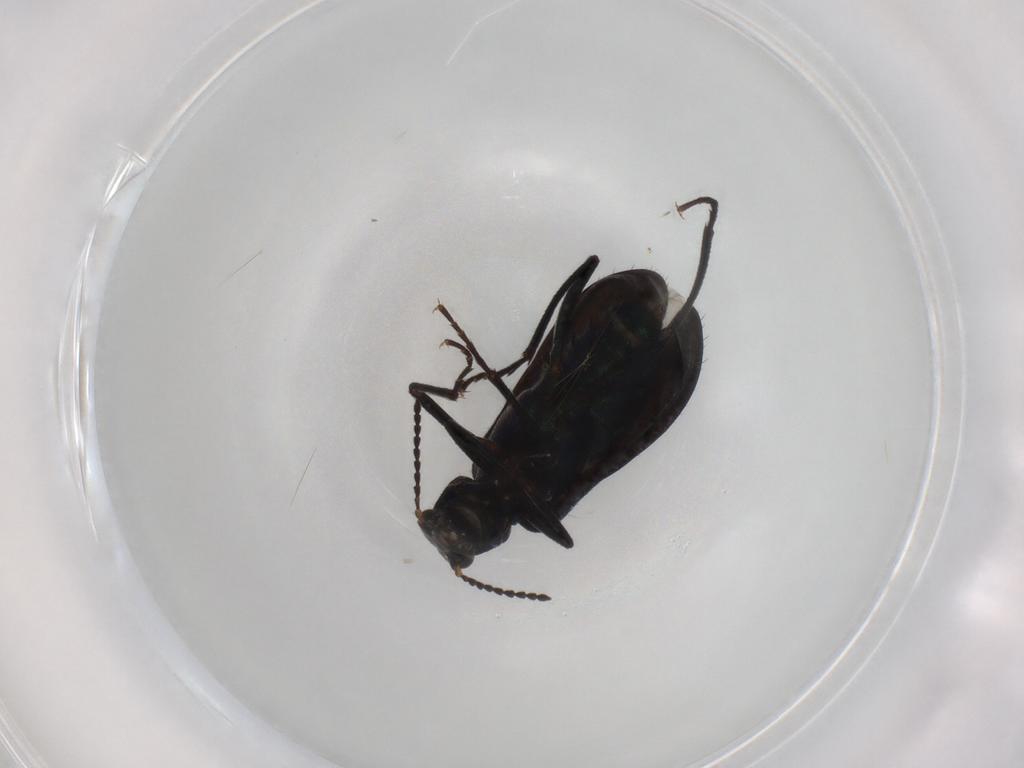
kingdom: Animalia
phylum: Arthropoda
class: Insecta
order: Coleoptera
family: Melyridae
